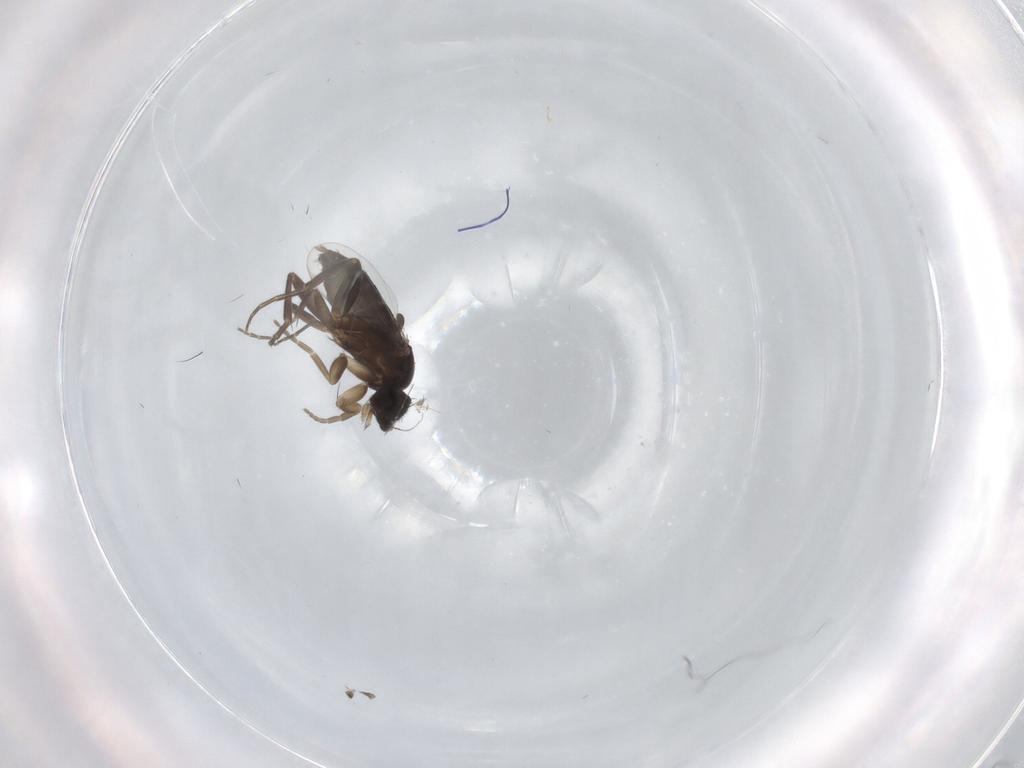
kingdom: Animalia
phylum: Arthropoda
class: Insecta
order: Diptera
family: Phoridae
